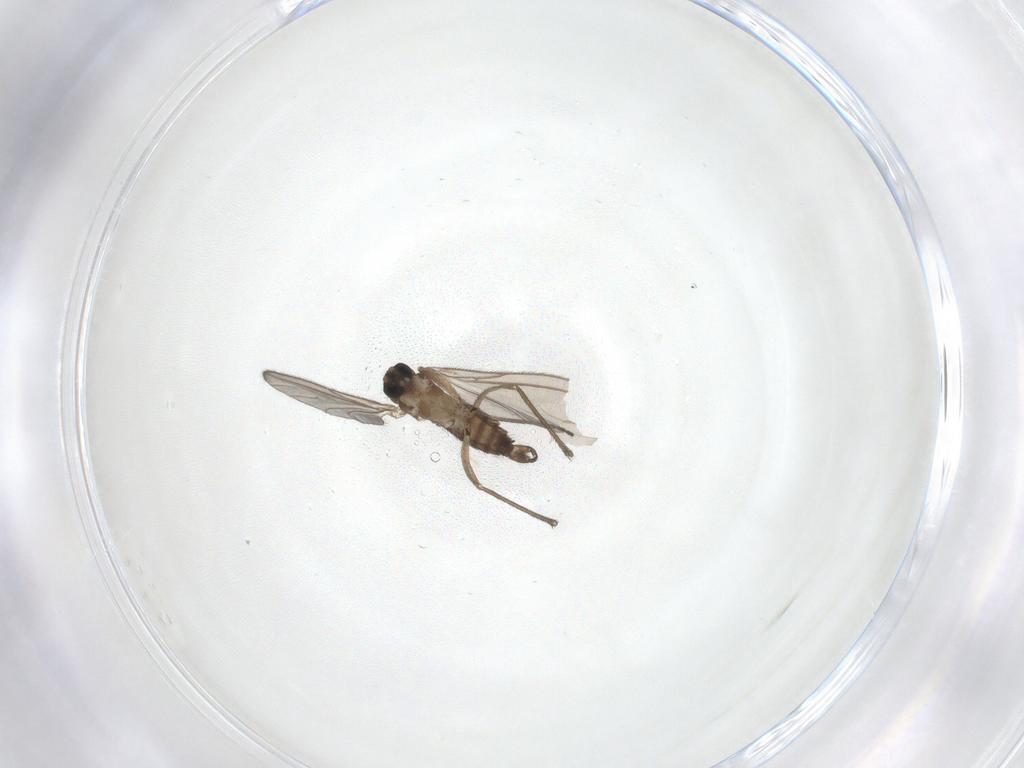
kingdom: Animalia
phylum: Arthropoda
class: Insecta
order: Diptera
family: Sciaridae
